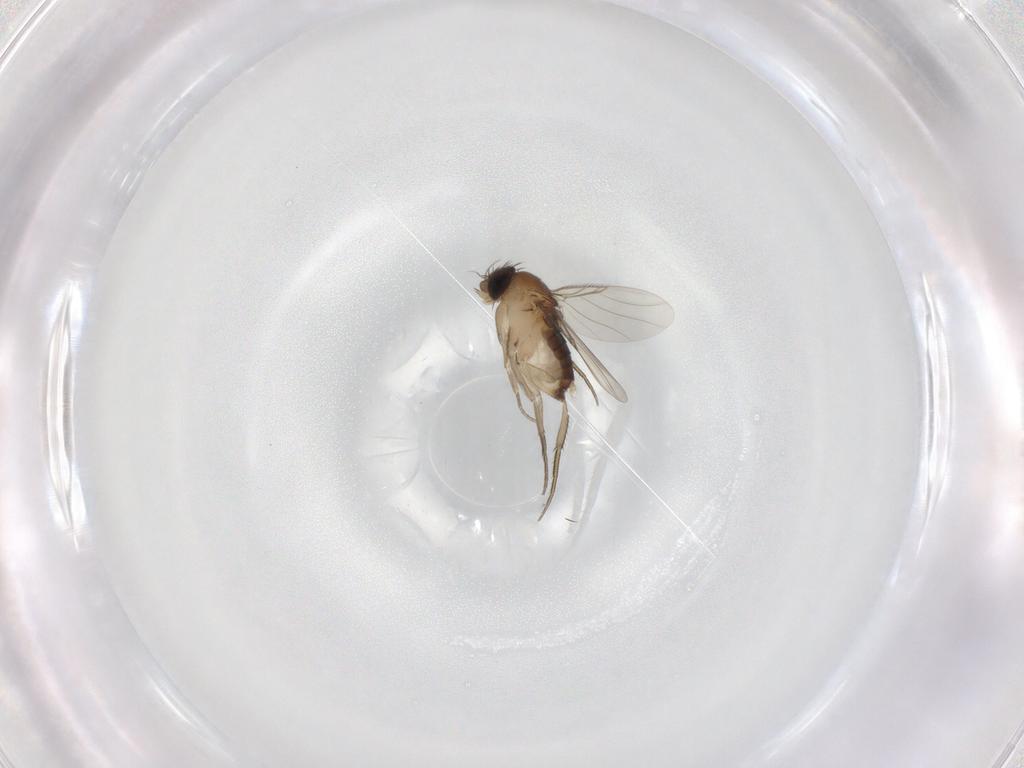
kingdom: Animalia
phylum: Arthropoda
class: Insecta
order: Diptera
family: Phoridae
